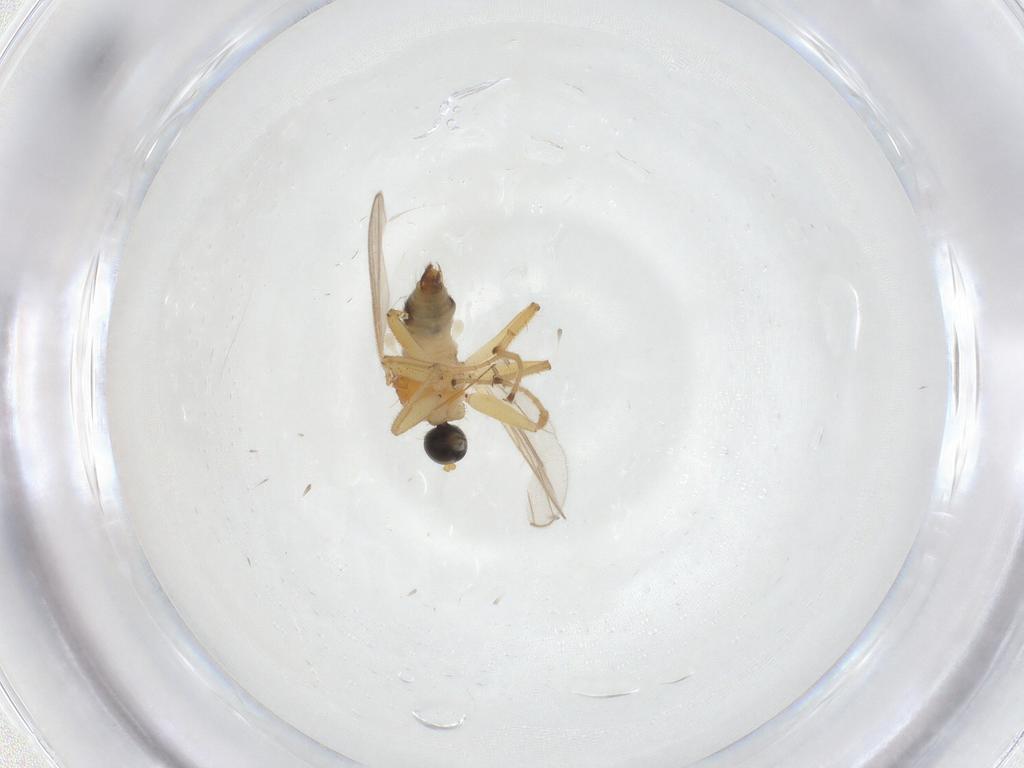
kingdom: Animalia
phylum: Arthropoda
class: Insecta
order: Diptera
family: Hybotidae
